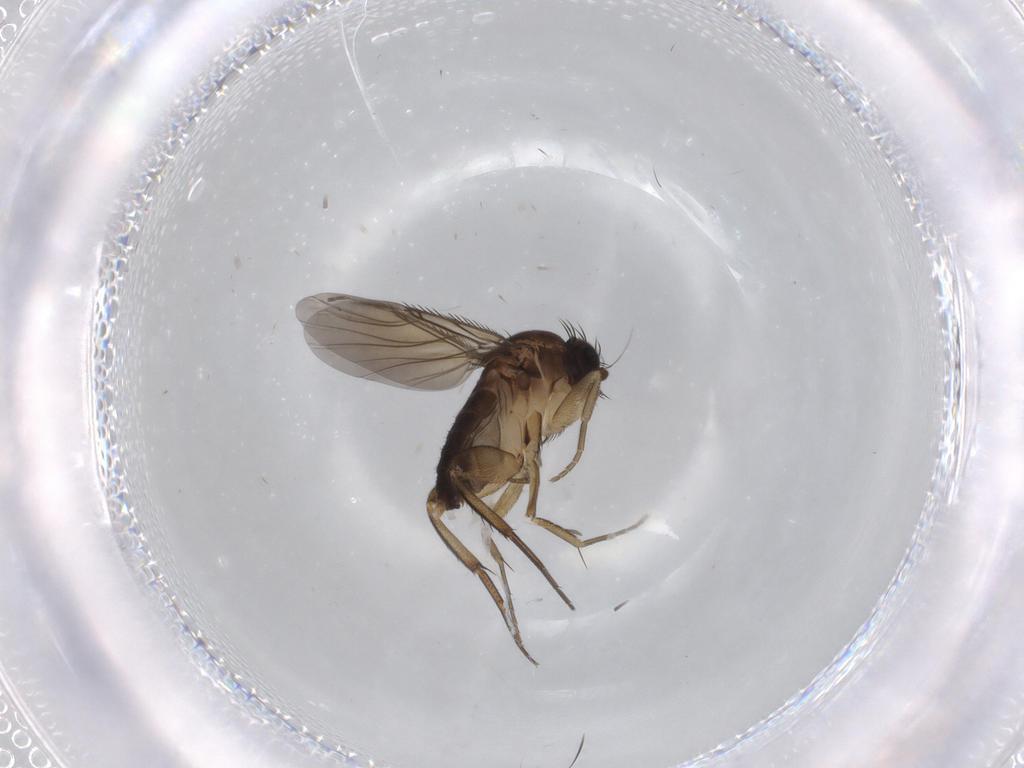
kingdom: Animalia
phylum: Arthropoda
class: Insecta
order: Diptera
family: Phoridae
